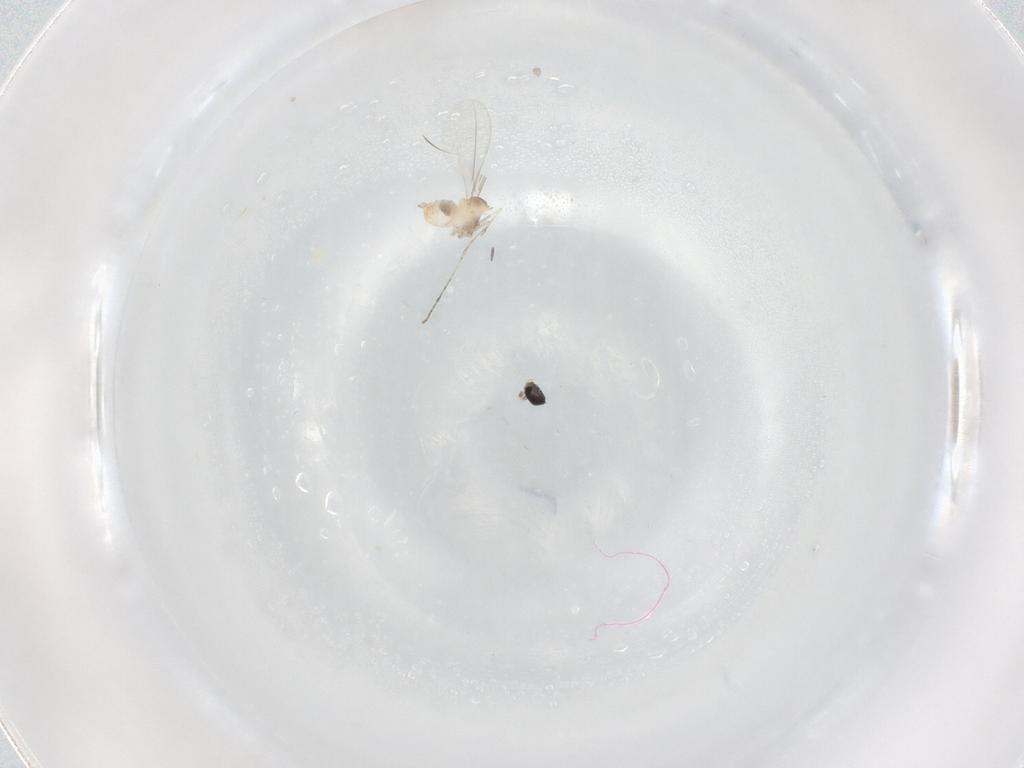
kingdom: Animalia
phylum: Arthropoda
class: Insecta
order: Diptera
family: Cecidomyiidae
